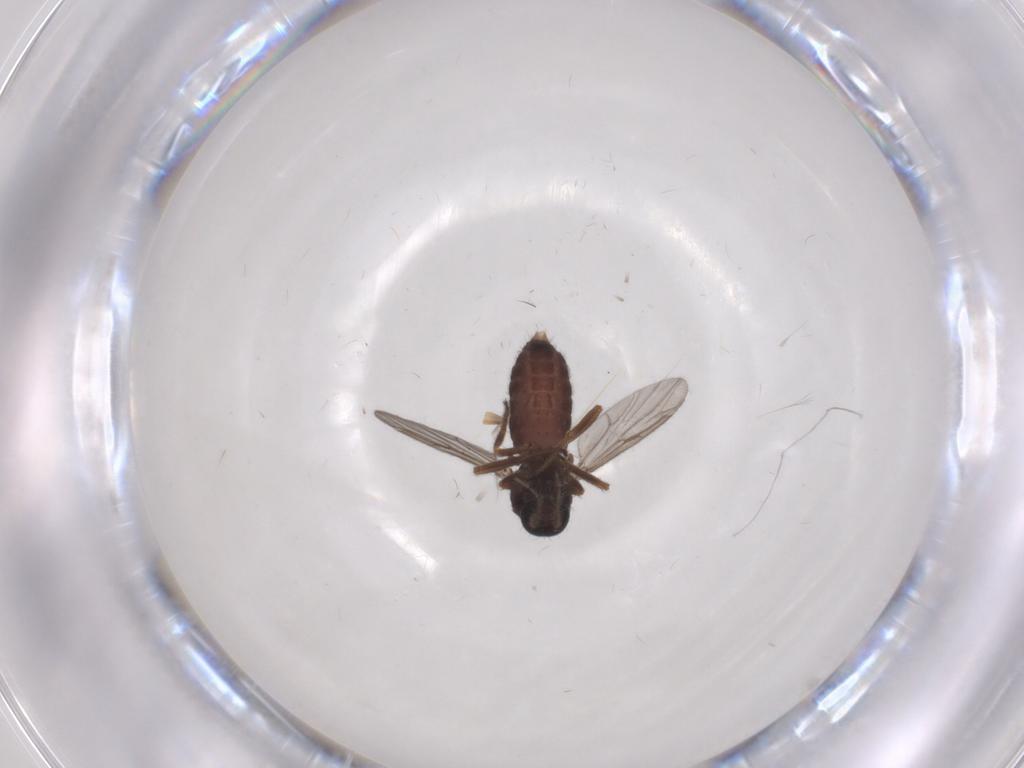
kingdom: Animalia
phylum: Arthropoda
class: Insecta
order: Diptera
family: Ceratopogonidae
